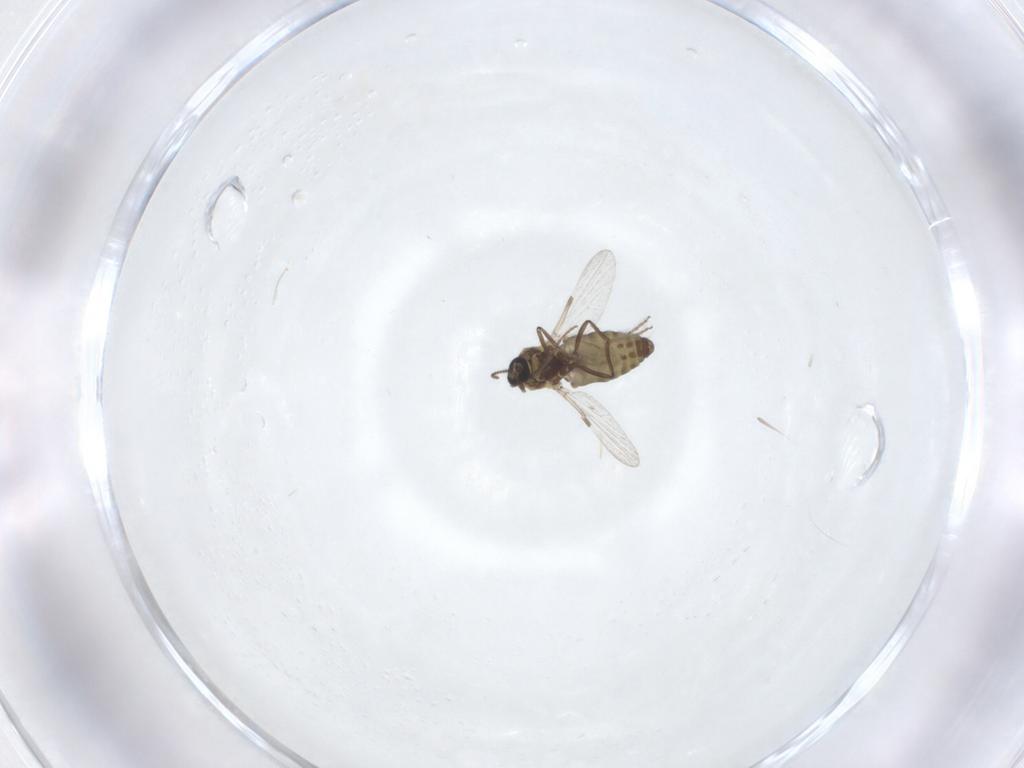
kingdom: Animalia
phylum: Arthropoda
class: Insecta
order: Diptera
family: Ceratopogonidae
